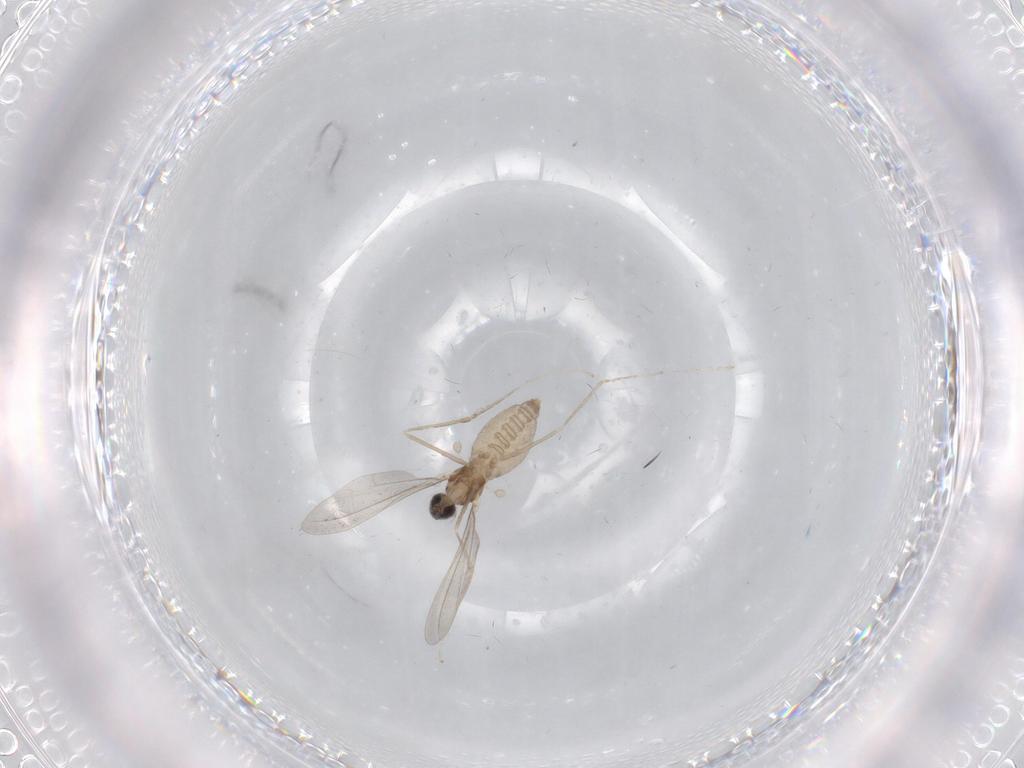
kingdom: Animalia
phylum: Arthropoda
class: Insecta
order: Diptera
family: Cecidomyiidae
